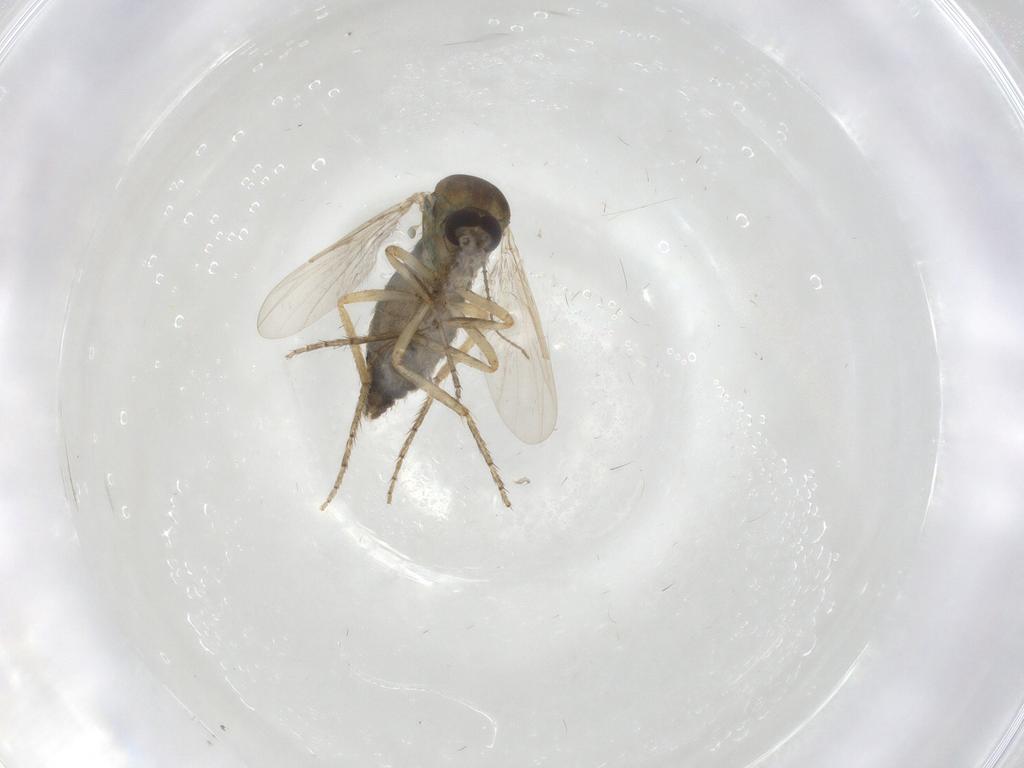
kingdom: Animalia
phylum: Arthropoda
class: Insecta
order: Diptera
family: Ceratopogonidae
